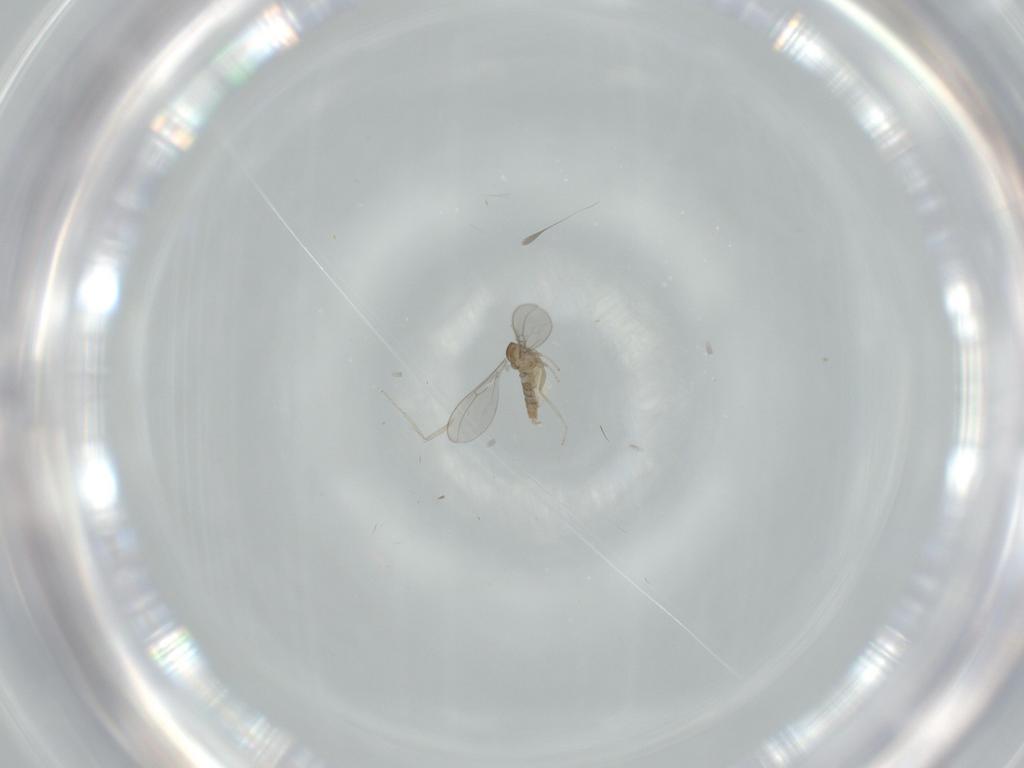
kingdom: Animalia
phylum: Arthropoda
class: Insecta
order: Diptera
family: Cecidomyiidae
